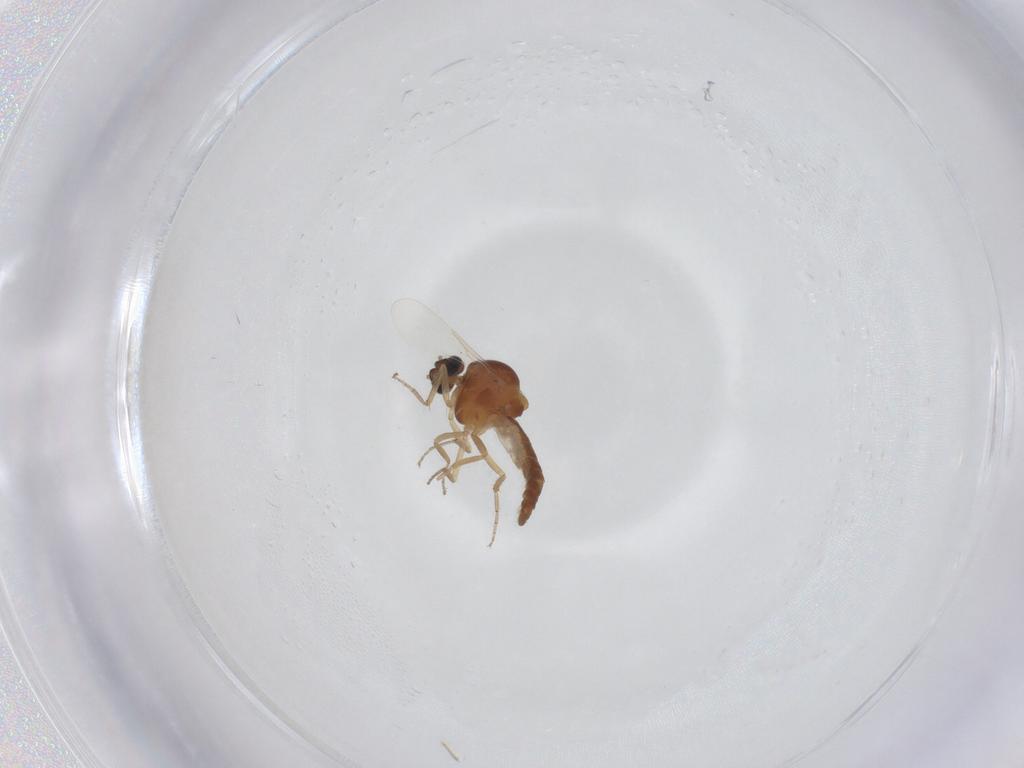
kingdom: Animalia
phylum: Arthropoda
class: Insecta
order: Diptera
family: Ceratopogonidae
